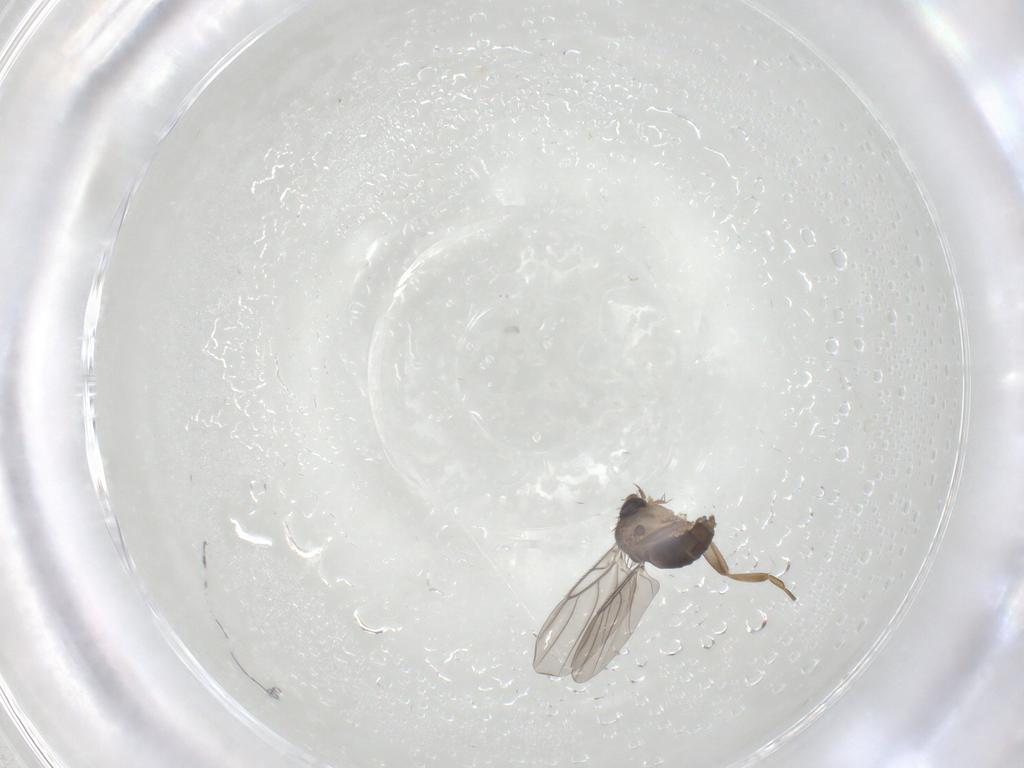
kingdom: Animalia
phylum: Arthropoda
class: Insecta
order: Diptera
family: Phoridae
